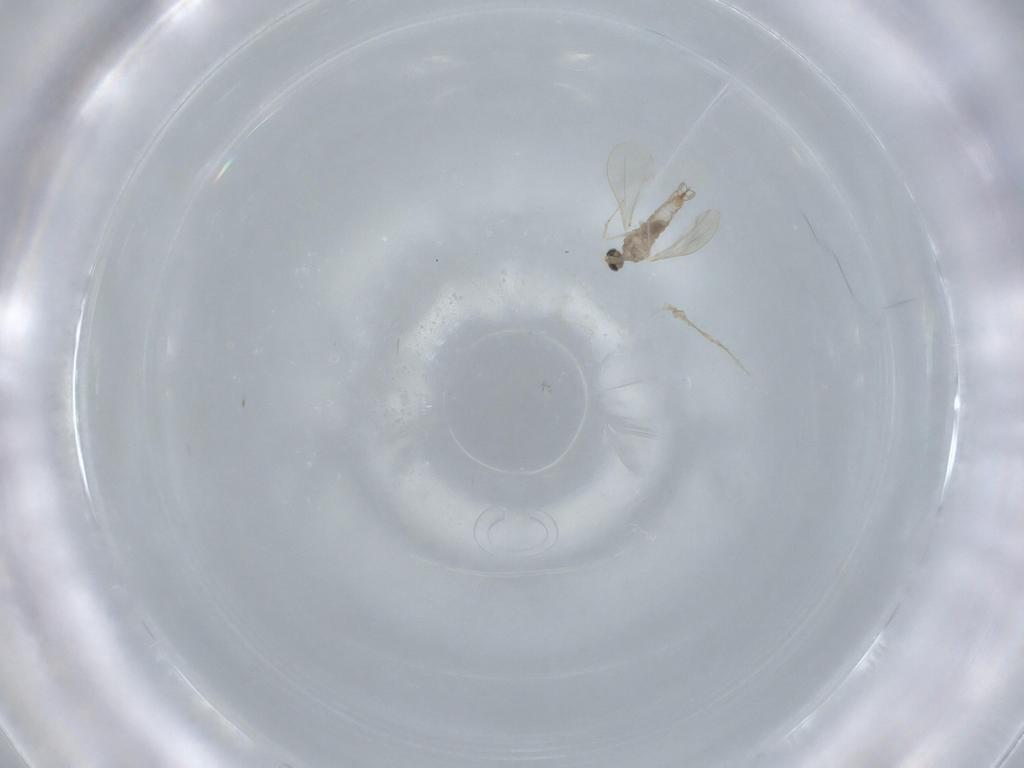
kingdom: Animalia
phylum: Arthropoda
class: Insecta
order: Diptera
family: Cecidomyiidae
